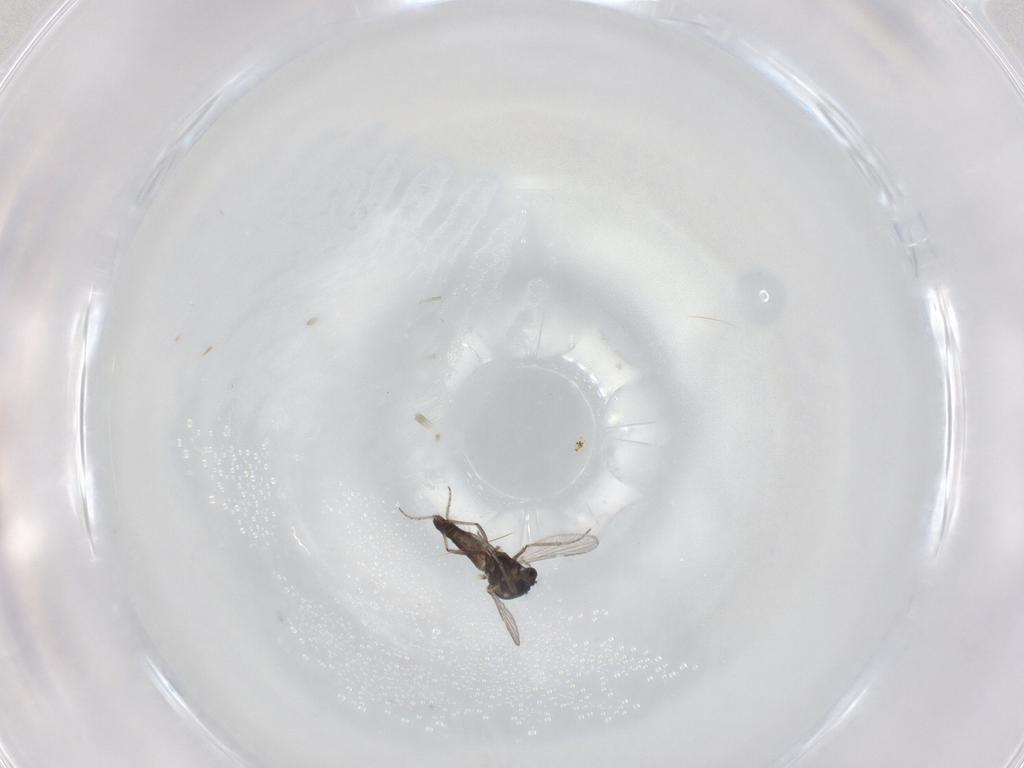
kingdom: Animalia
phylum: Arthropoda
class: Insecta
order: Diptera
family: Ceratopogonidae
